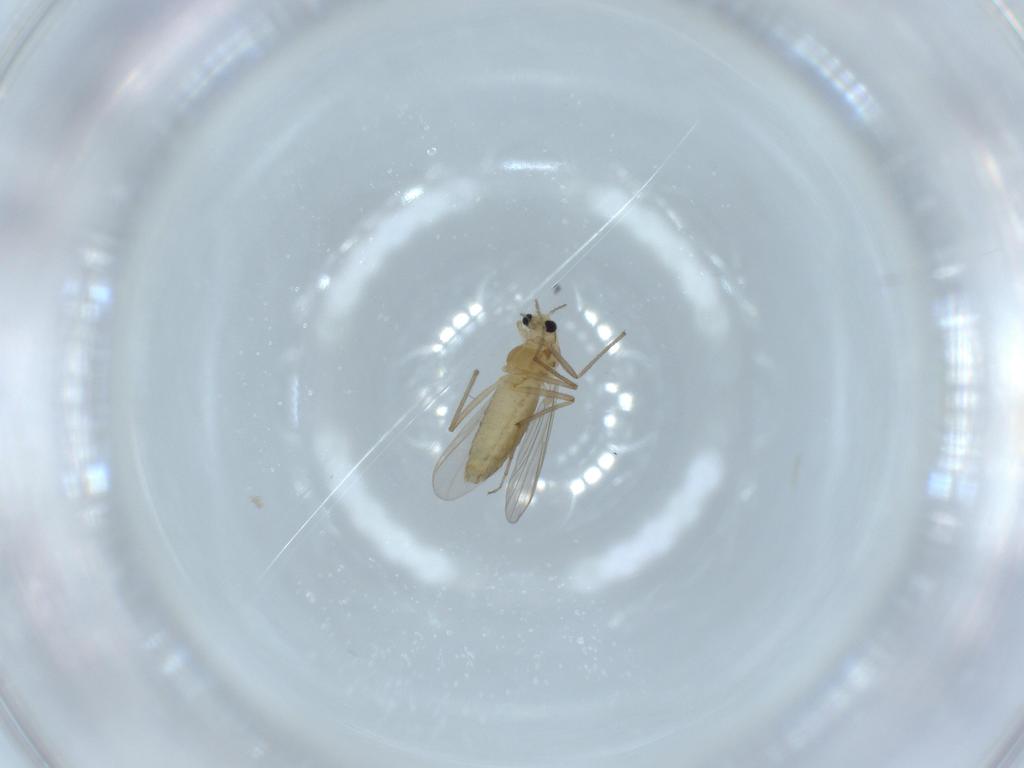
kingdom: Animalia
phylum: Arthropoda
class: Insecta
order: Diptera
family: Chironomidae
